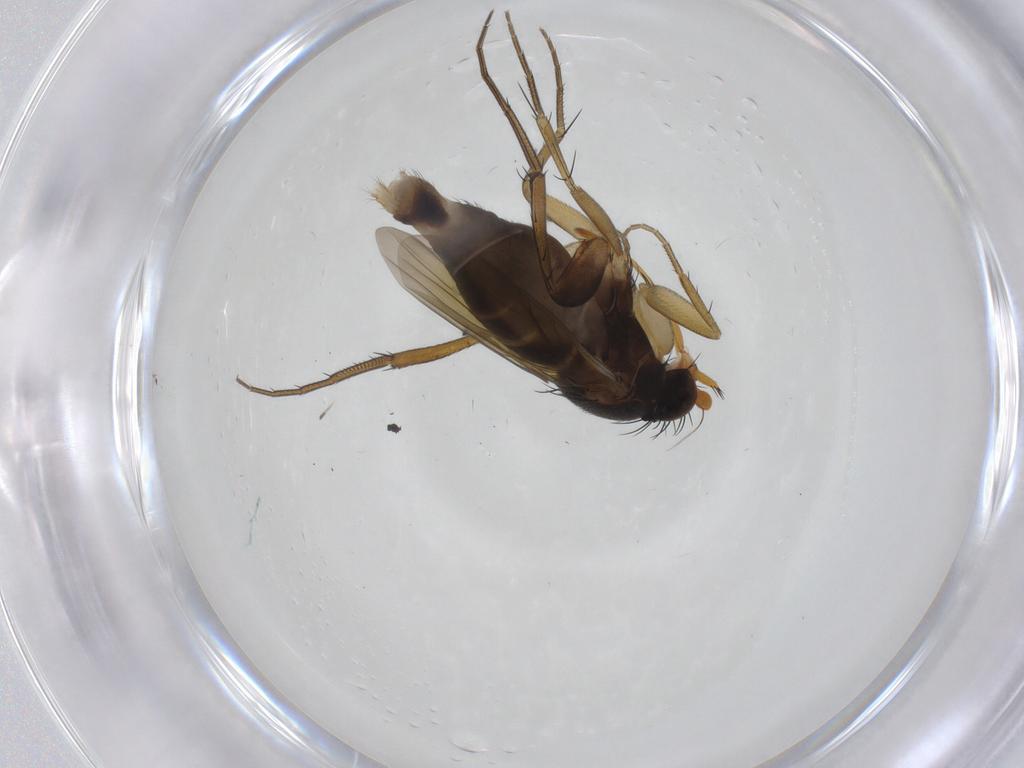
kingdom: Animalia
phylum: Arthropoda
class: Insecta
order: Diptera
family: Phoridae
